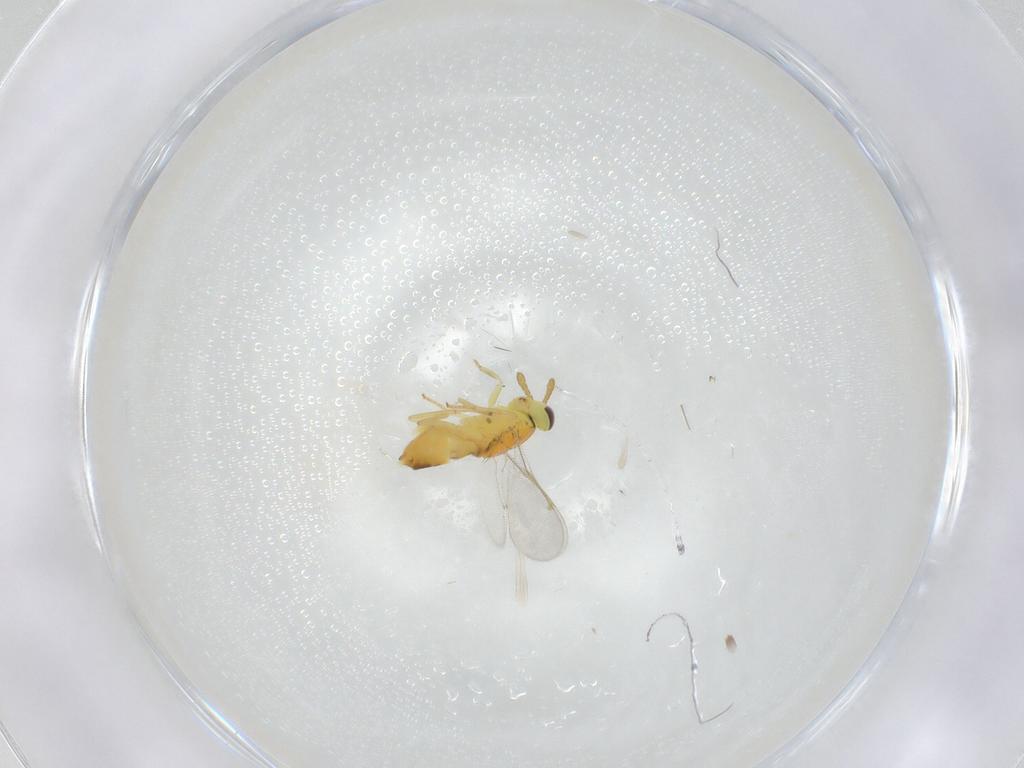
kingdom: Animalia
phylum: Arthropoda
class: Insecta
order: Hymenoptera
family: Aphelinidae
